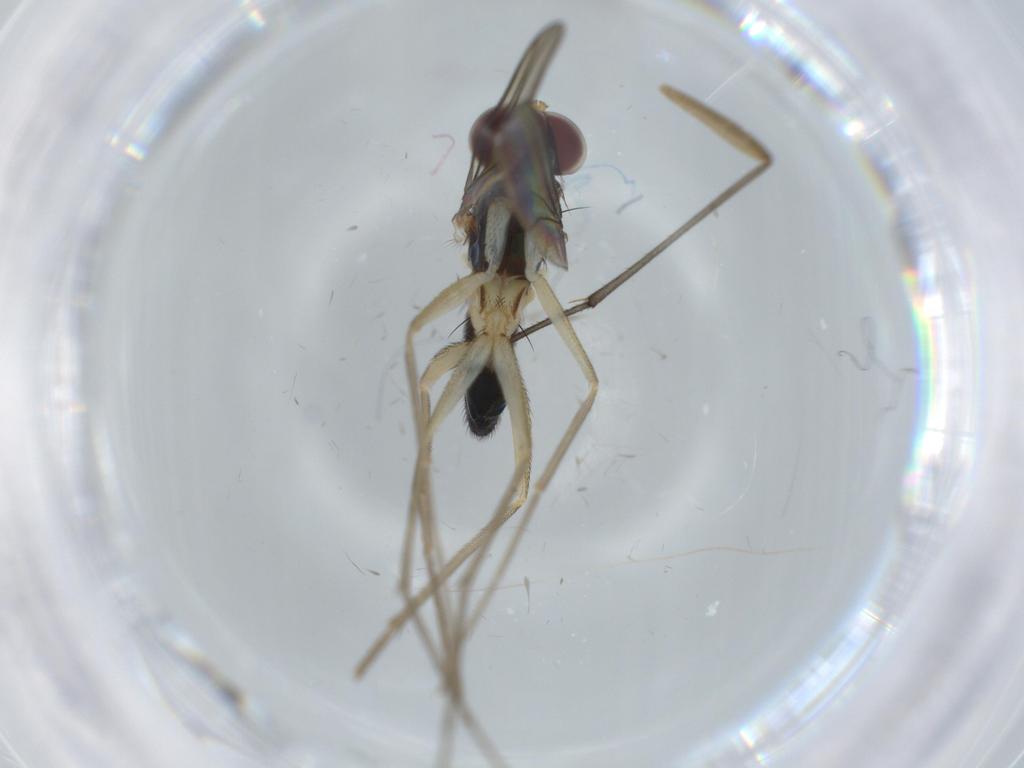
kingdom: Animalia
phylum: Arthropoda
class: Insecta
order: Diptera
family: Dolichopodidae
